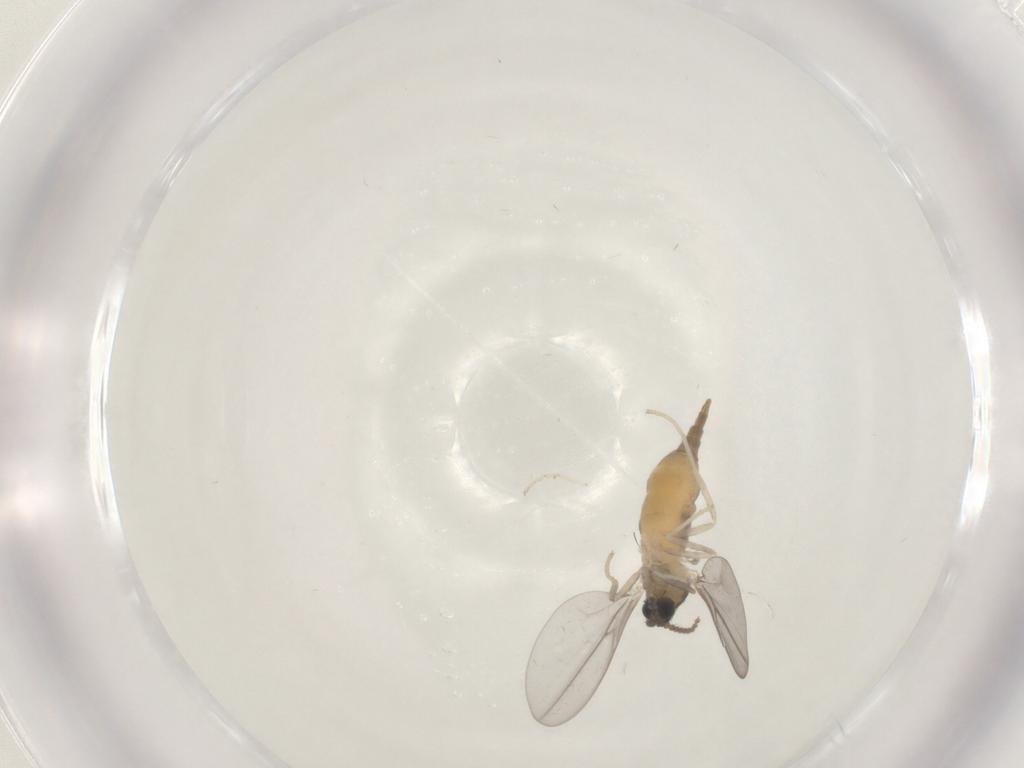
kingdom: Animalia
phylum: Arthropoda
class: Insecta
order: Diptera
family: Cecidomyiidae
